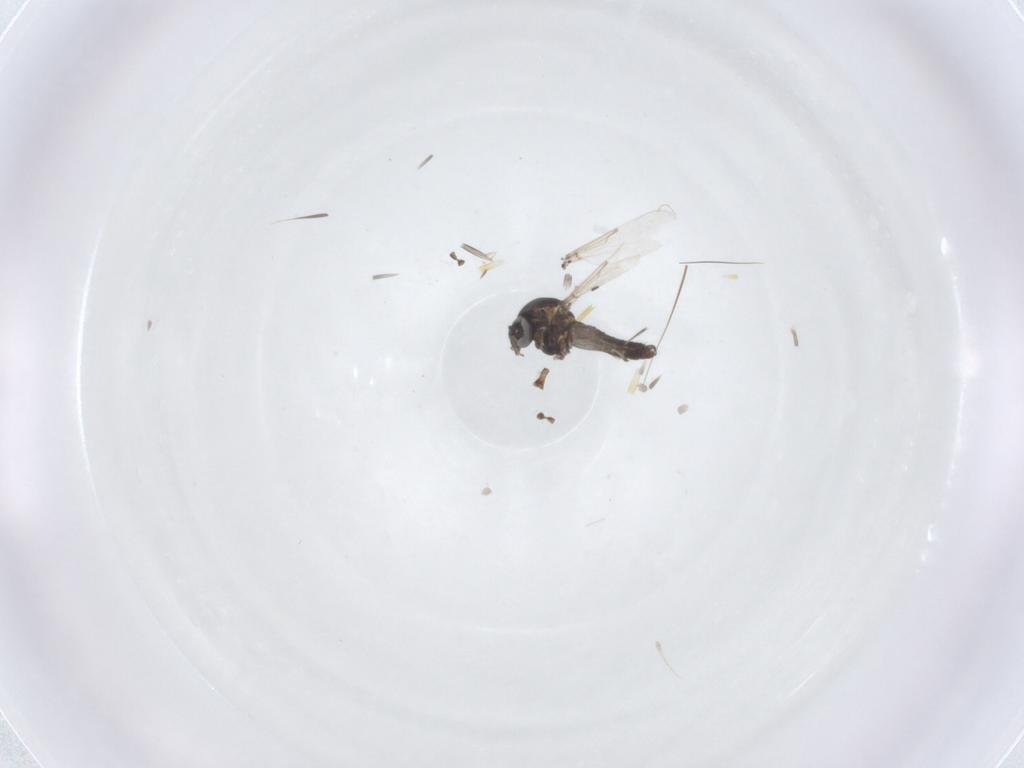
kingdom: Animalia
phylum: Arthropoda
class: Insecta
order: Diptera
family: Ceratopogonidae
